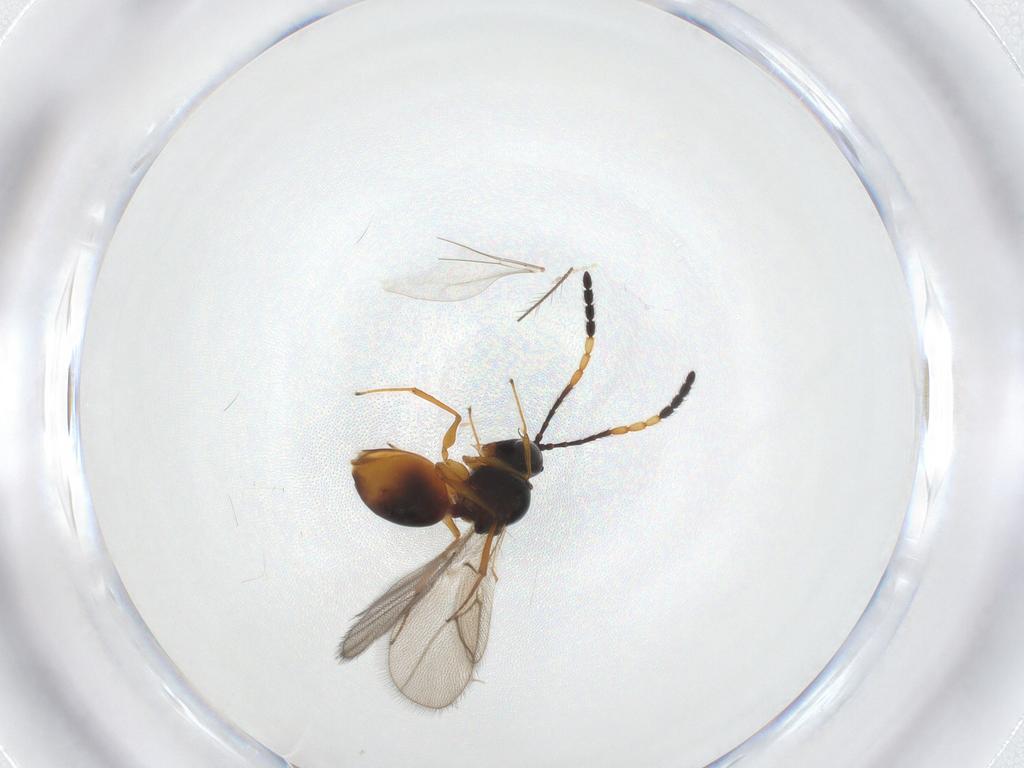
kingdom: Animalia
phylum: Arthropoda
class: Insecta
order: Hymenoptera
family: Figitidae
